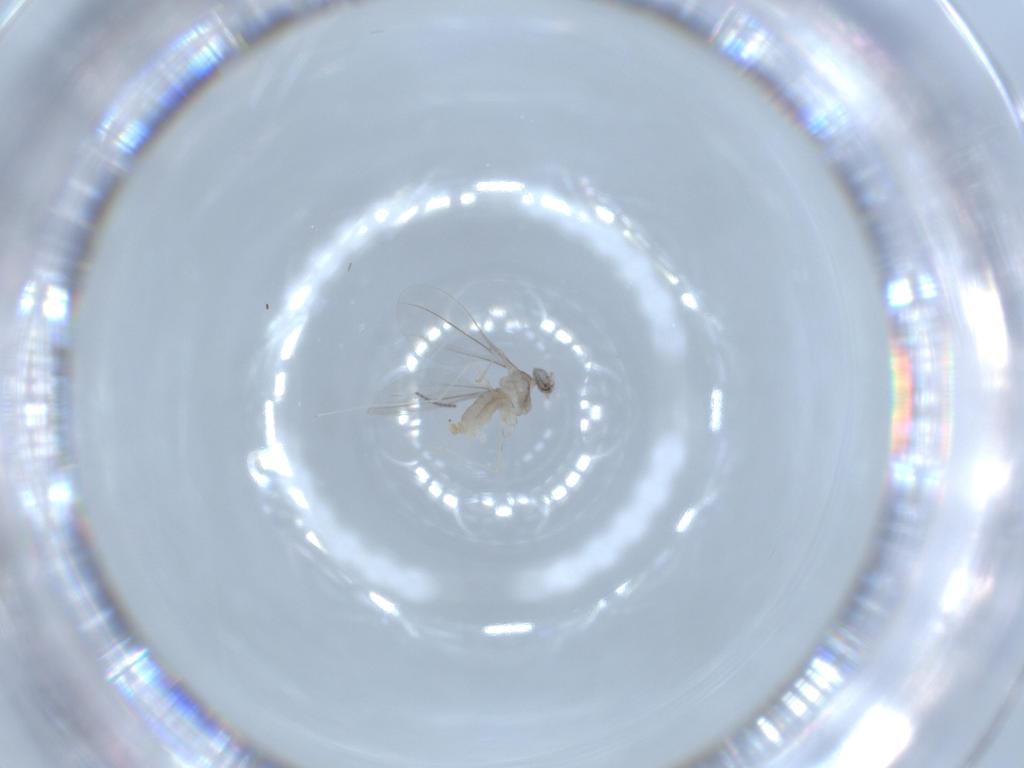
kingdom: Animalia
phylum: Arthropoda
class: Insecta
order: Diptera
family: Sciaridae
